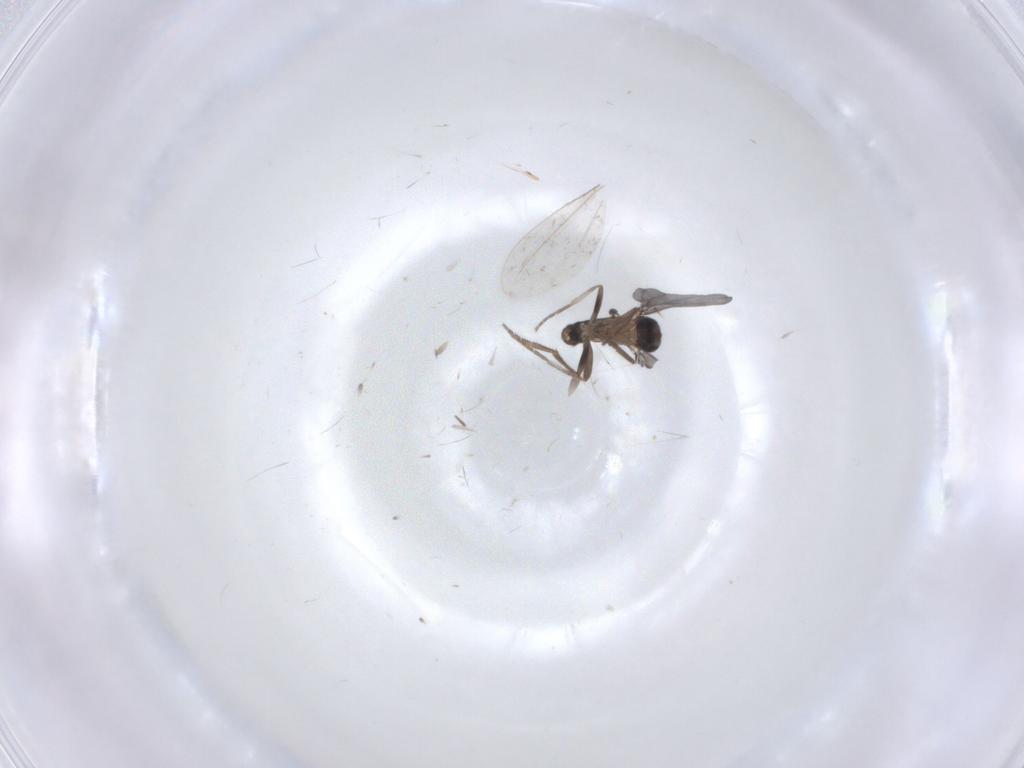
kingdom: Animalia
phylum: Arthropoda
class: Insecta
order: Diptera
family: Phoridae
